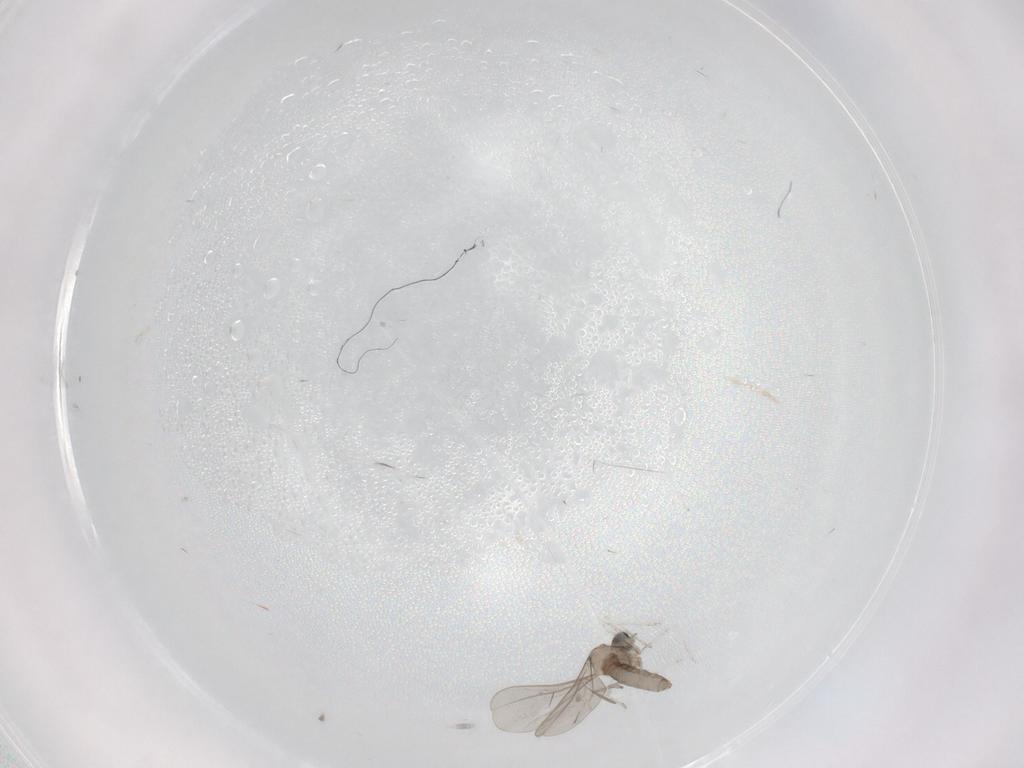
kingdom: Animalia
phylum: Arthropoda
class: Insecta
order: Diptera
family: Cecidomyiidae
